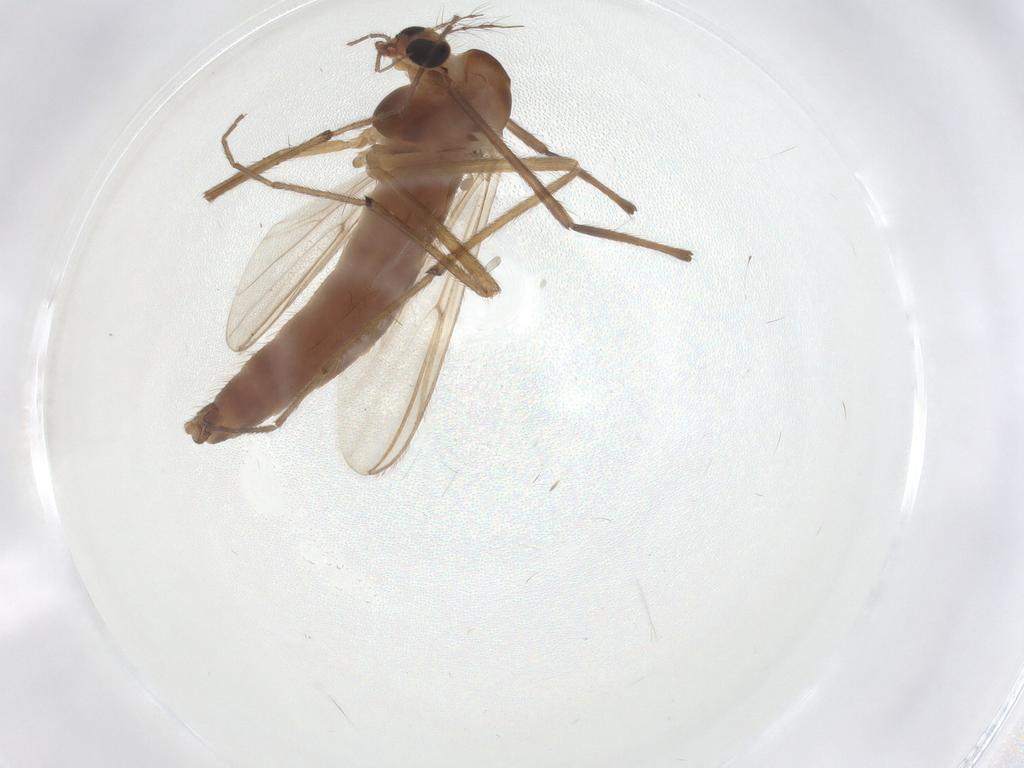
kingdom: Animalia
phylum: Arthropoda
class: Insecta
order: Diptera
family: Chironomidae
